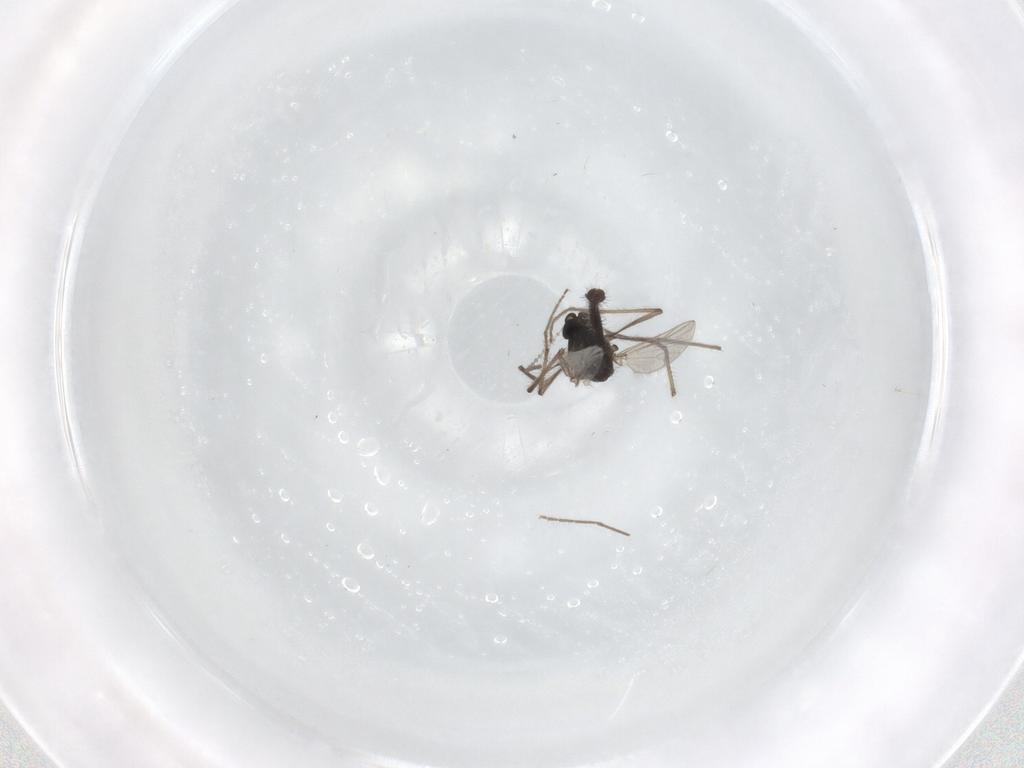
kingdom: Animalia
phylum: Arthropoda
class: Insecta
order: Diptera
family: Chironomidae
